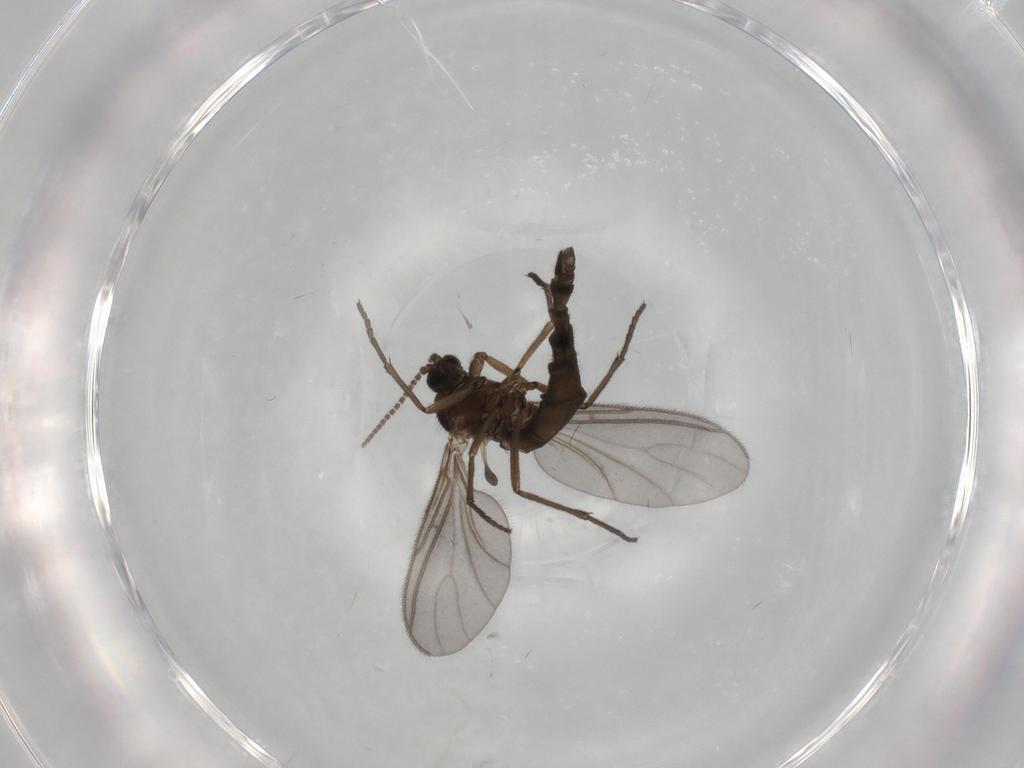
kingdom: Animalia
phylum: Arthropoda
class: Insecta
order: Diptera
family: Sciaridae
